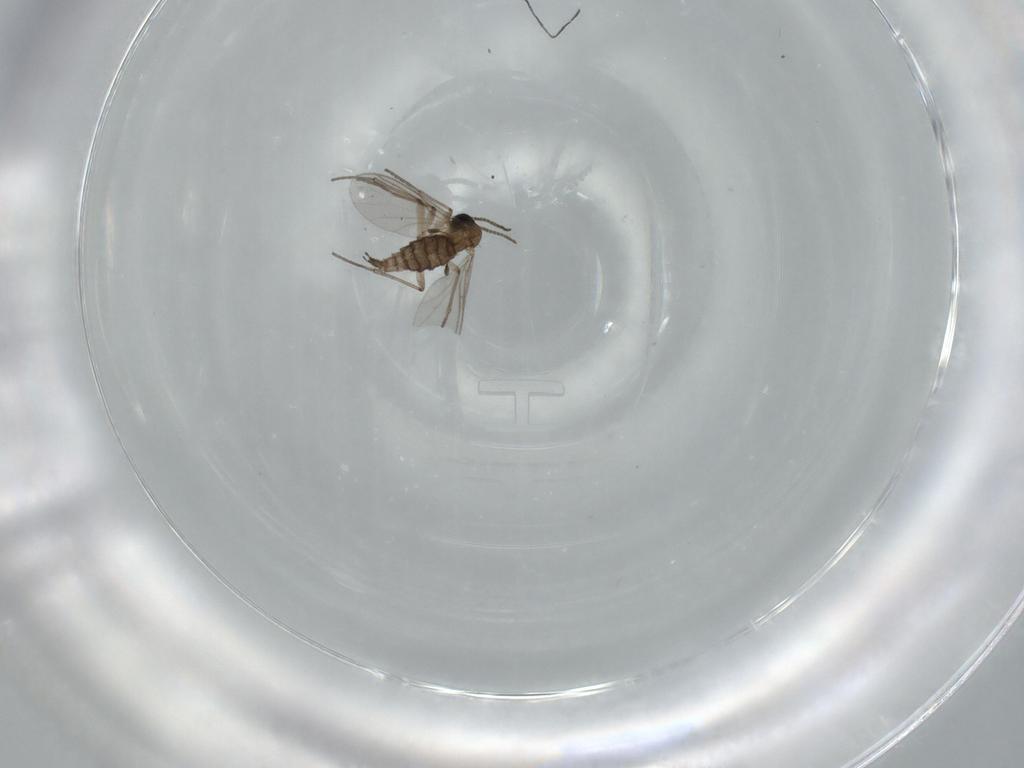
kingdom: Animalia
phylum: Arthropoda
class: Insecta
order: Diptera
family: Sciaridae
